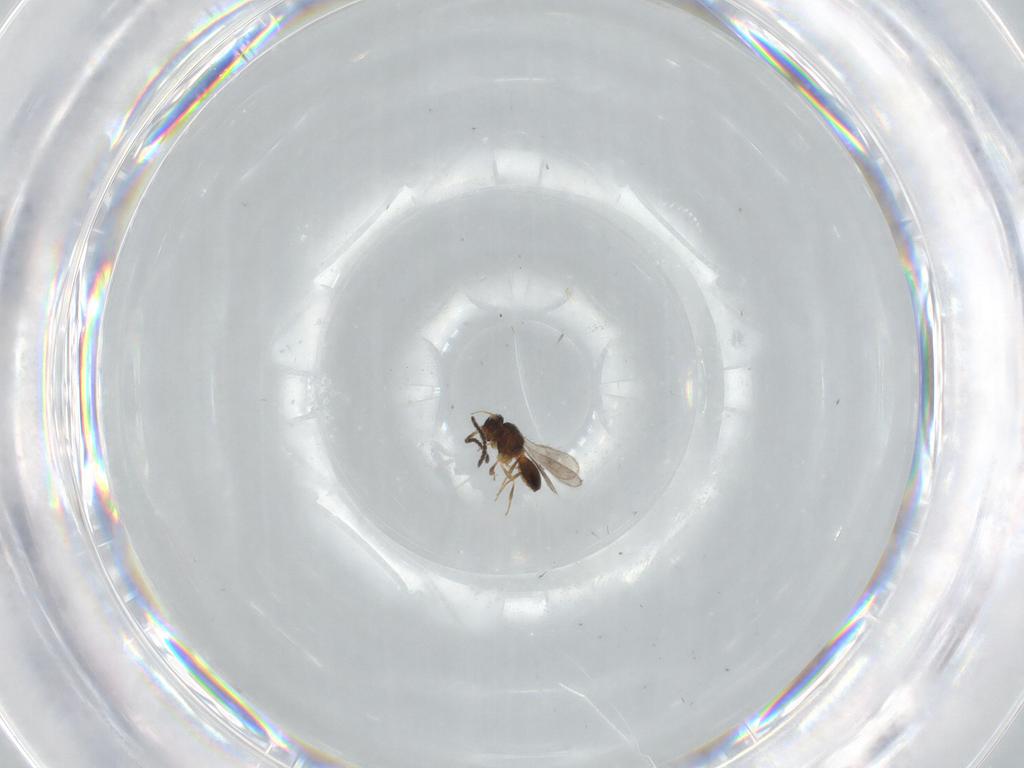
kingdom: Animalia
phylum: Arthropoda
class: Insecta
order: Hymenoptera
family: Scelionidae
